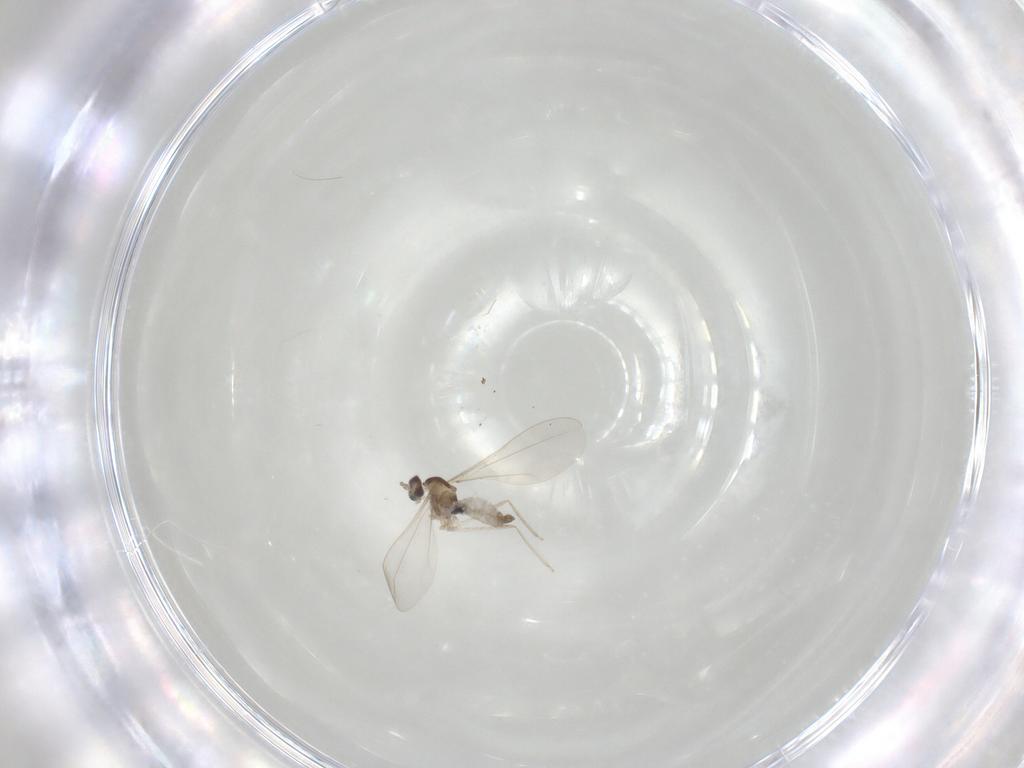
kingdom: Animalia
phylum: Arthropoda
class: Insecta
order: Diptera
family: Cecidomyiidae
